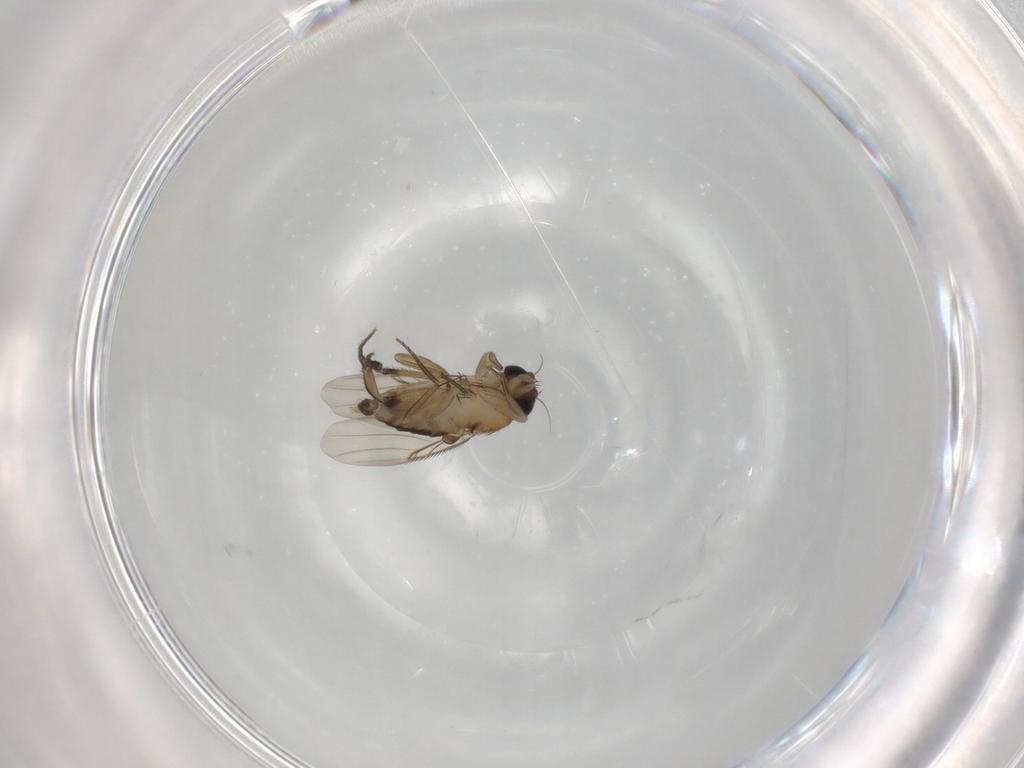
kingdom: Animalia
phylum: Arthropoda
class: Insecta
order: Diptera
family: Phoridae
